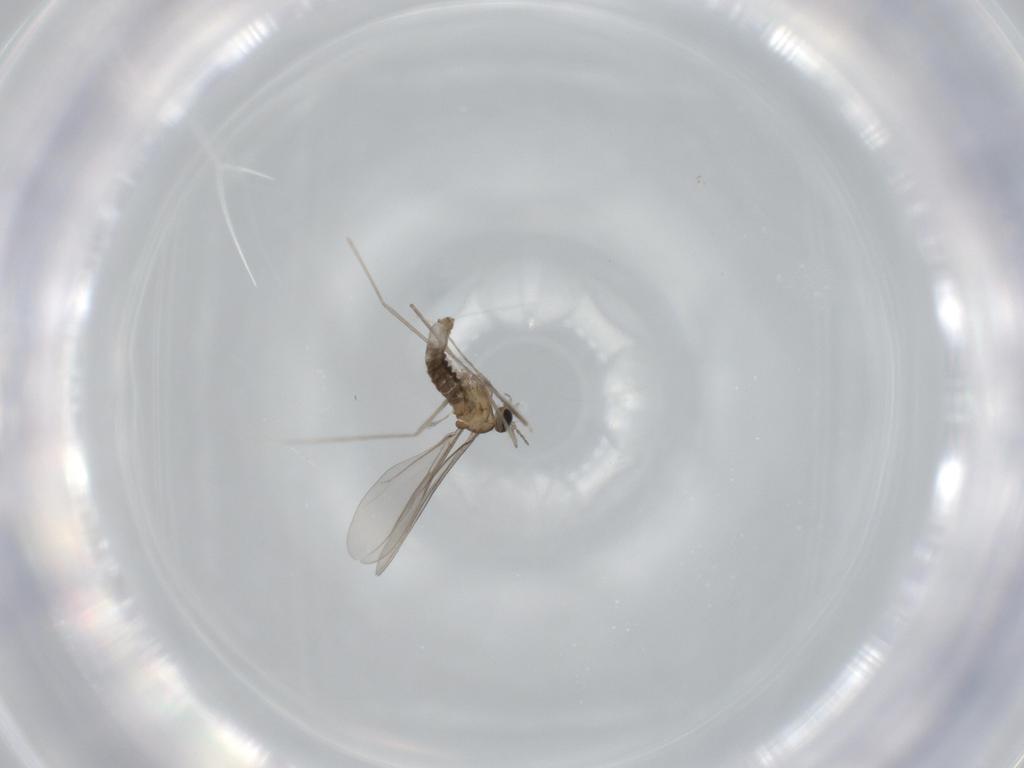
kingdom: Animalia
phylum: Arthropoda
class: Insecta
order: Diptera
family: Cecidomyiidae
